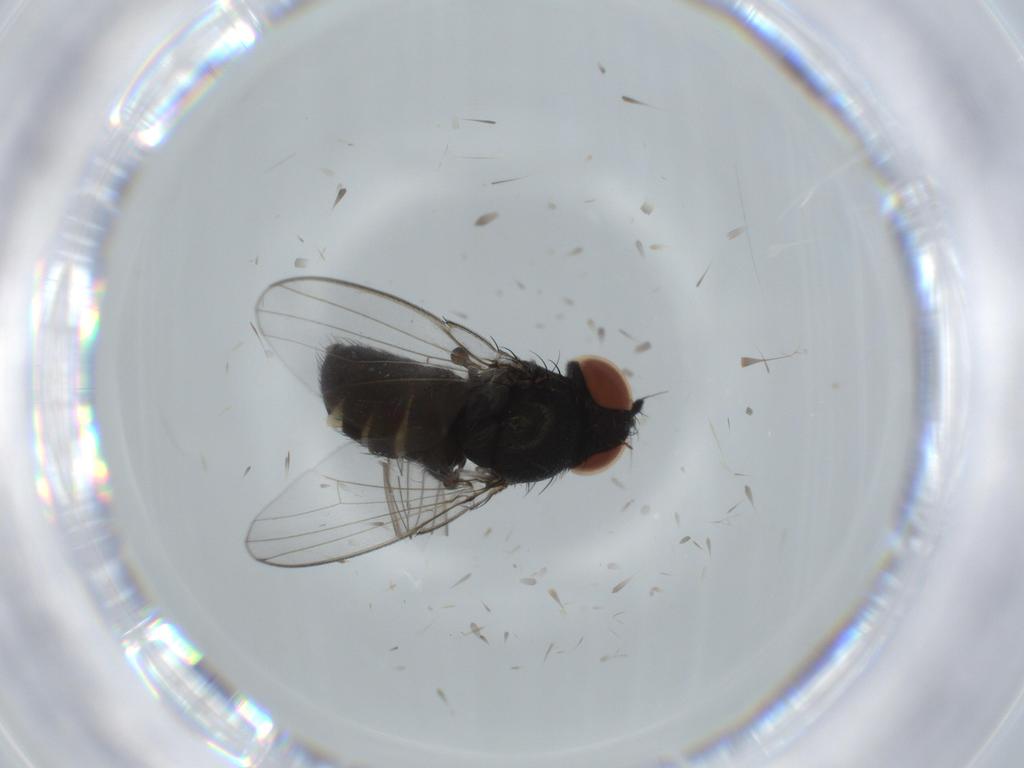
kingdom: Animalia
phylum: Arthropoda
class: Insecta
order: Diptera
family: Milichiidae
